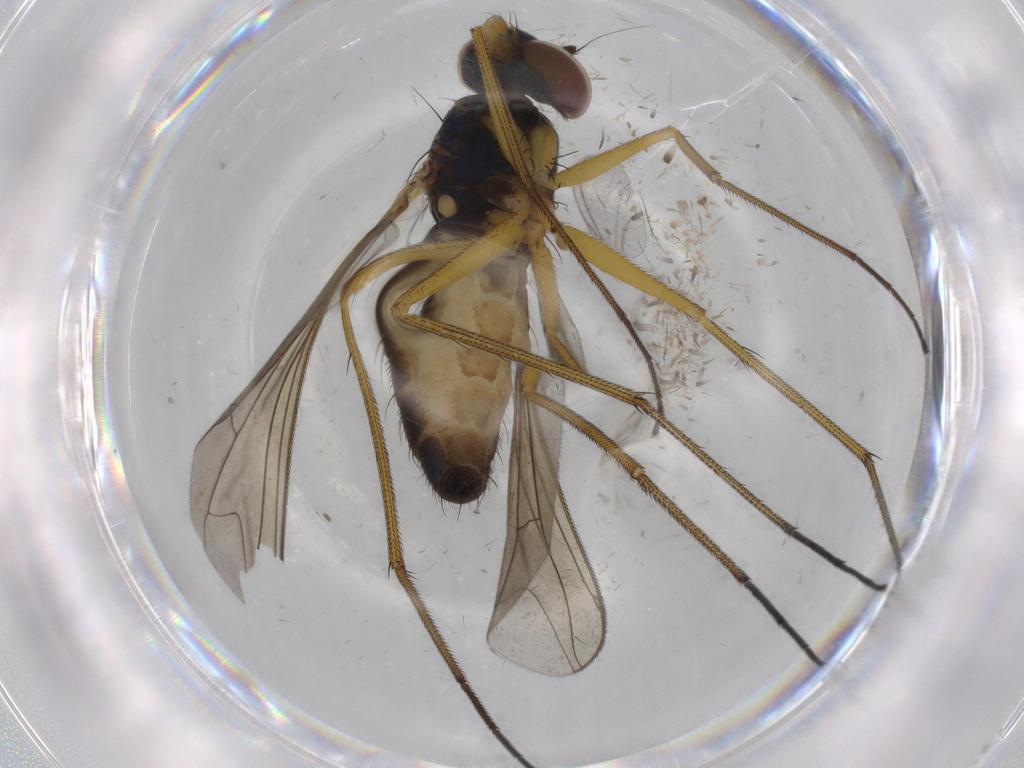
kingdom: Animalia
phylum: Arthropoda
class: Insecta
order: Diptera
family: Dolichopodidae
